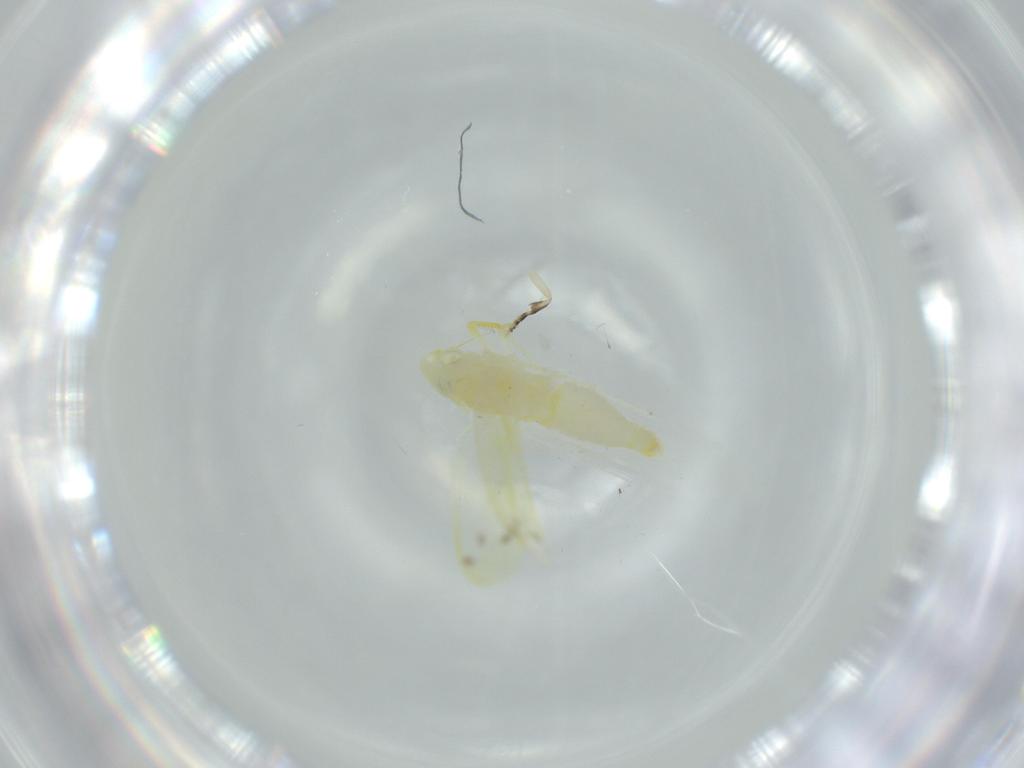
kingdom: Animalia
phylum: Arthropoda
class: Insecta
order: Hemiptera
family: Cicadellidae
